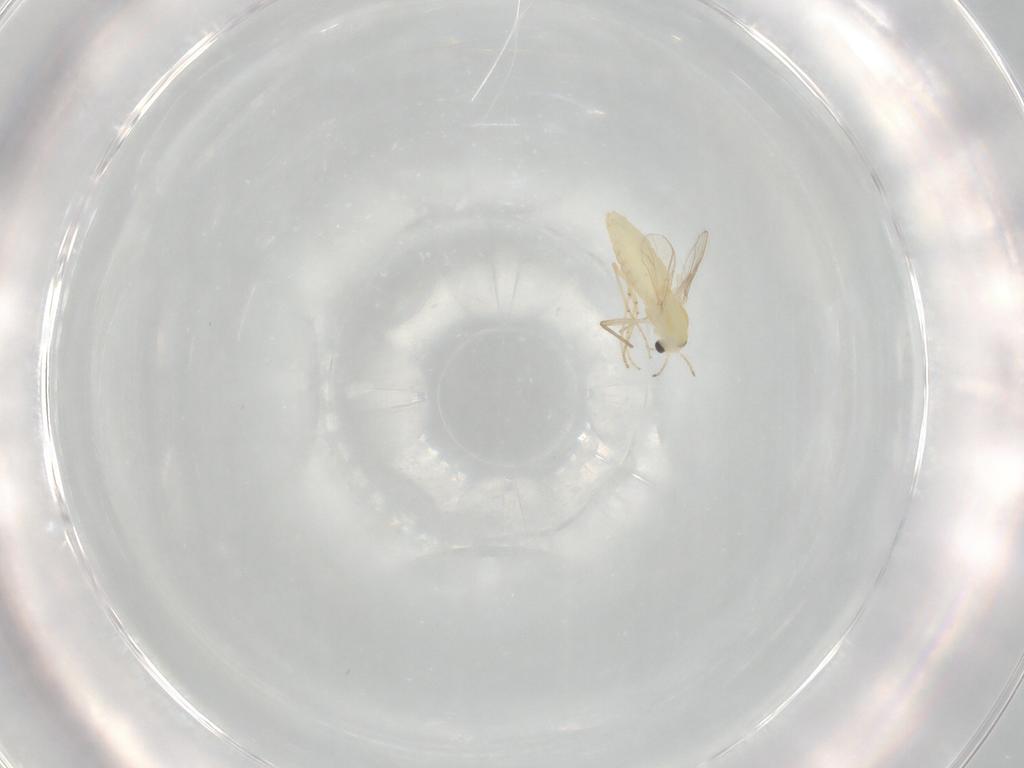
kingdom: Animalia
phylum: Arthropoda
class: Insecta
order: Diptera
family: Chironomidae
